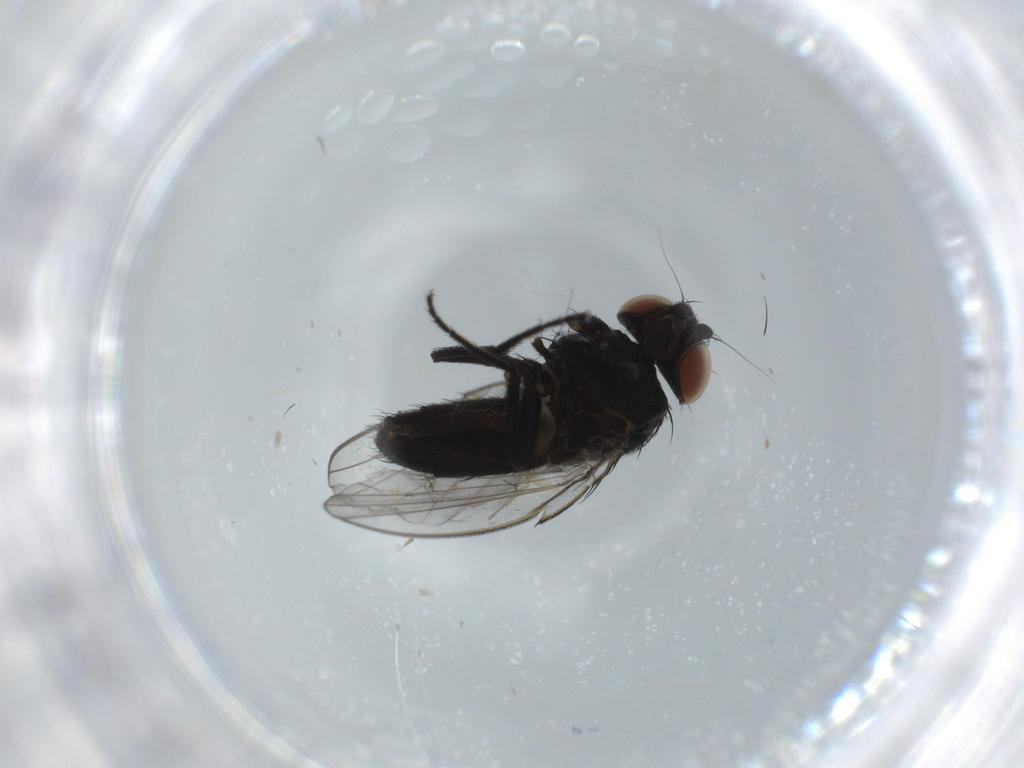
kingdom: Animalia
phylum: Arthropoda
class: Insecta
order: Diptera
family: Milichiidae
